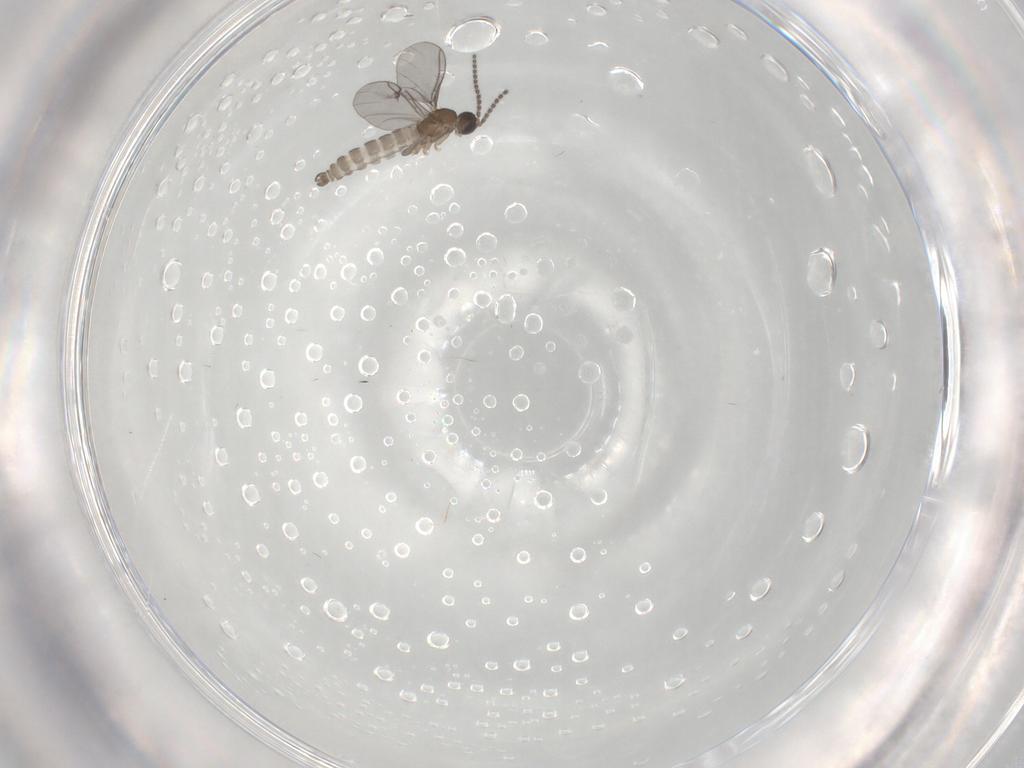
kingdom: Animalia
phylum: Arthropoda
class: Insecta
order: Diptera
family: Sciaridae
